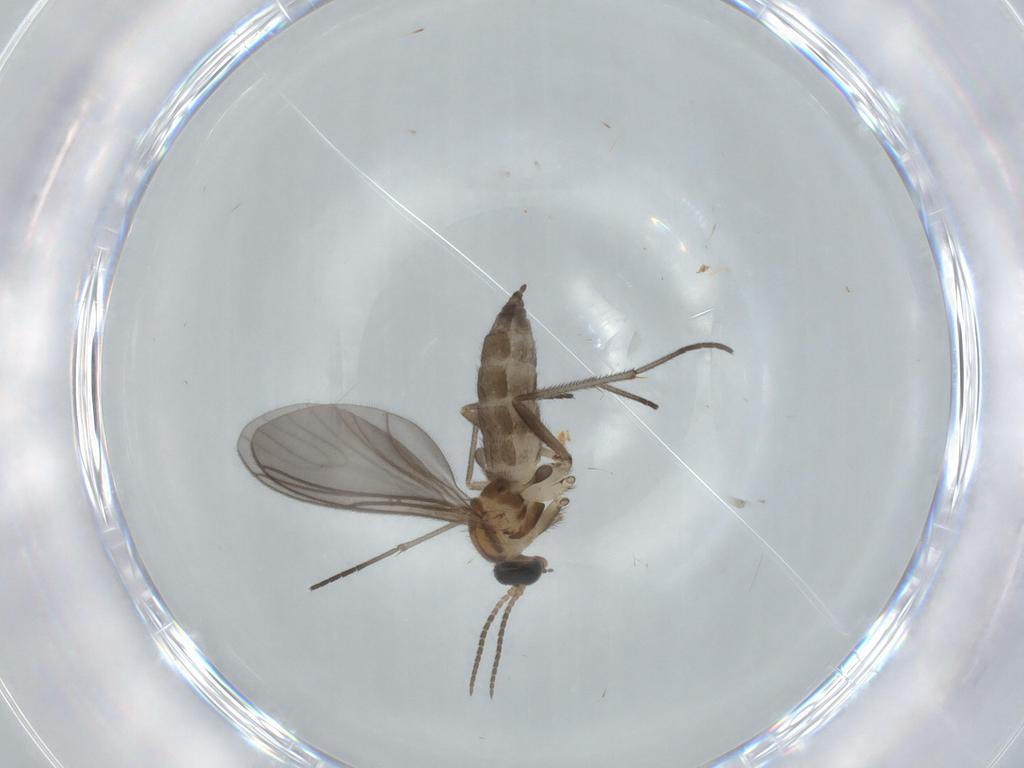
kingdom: Animalia
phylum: Arthropoda
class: Insecta
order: Diptera
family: Sciaridae
